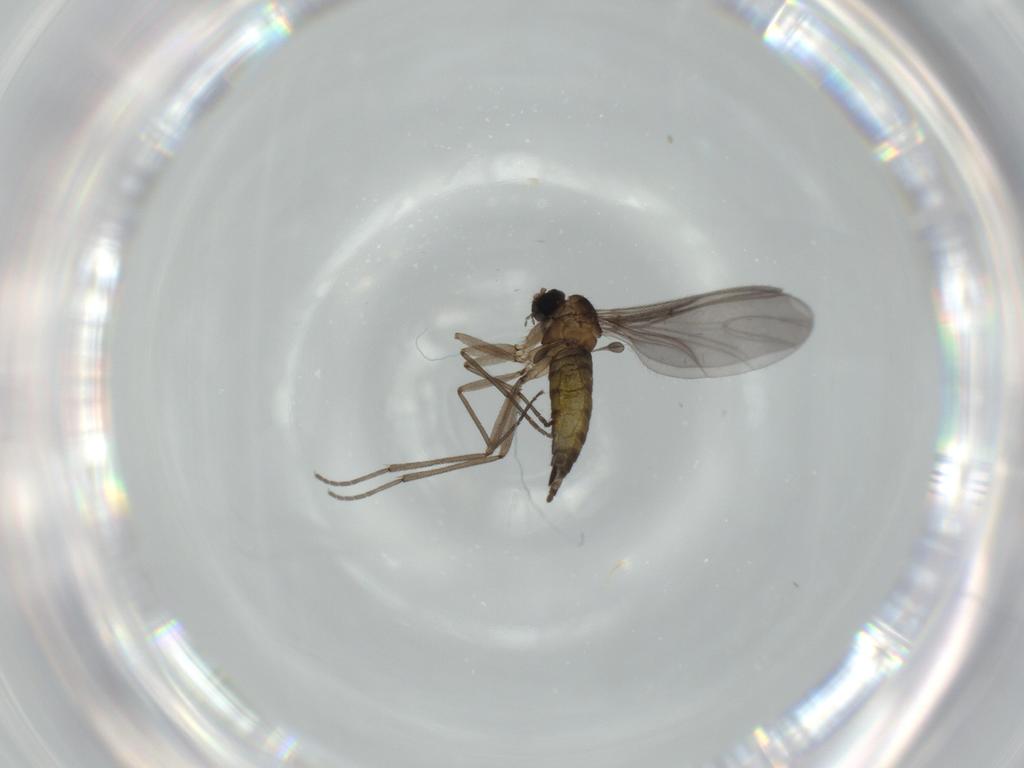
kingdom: Animalia
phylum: Arthropoda
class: Insecta
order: Diptera
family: Sciaridae
